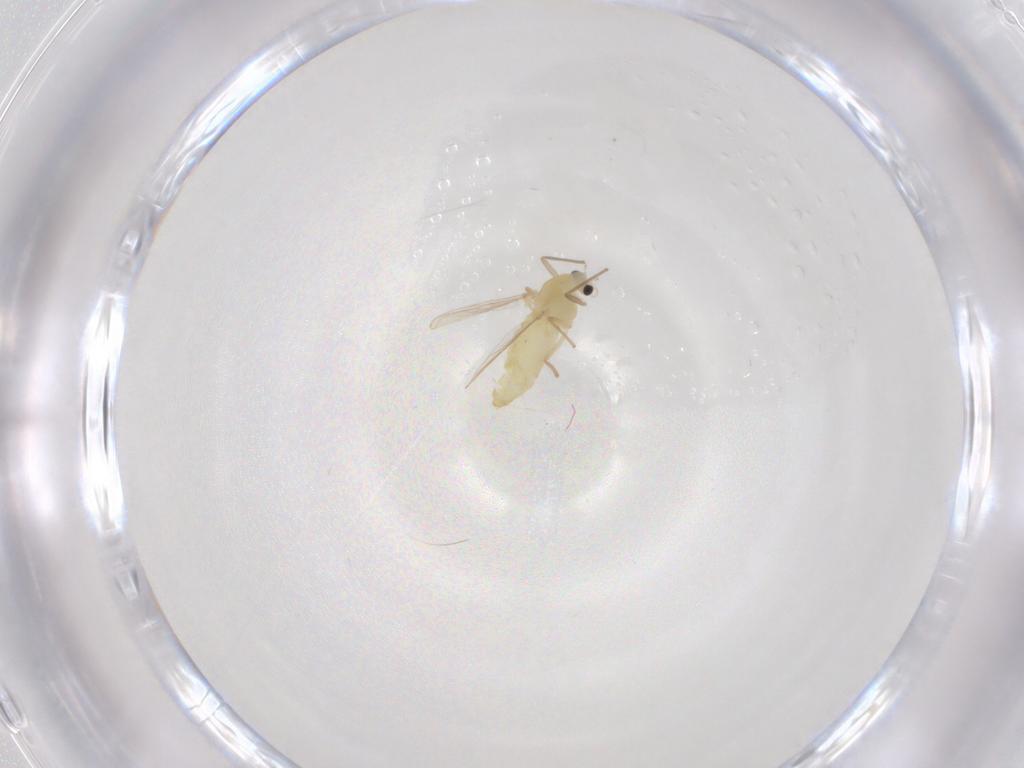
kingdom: Animalia
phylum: Arthropoda
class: Insecta
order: Diptera
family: Chironomidae
